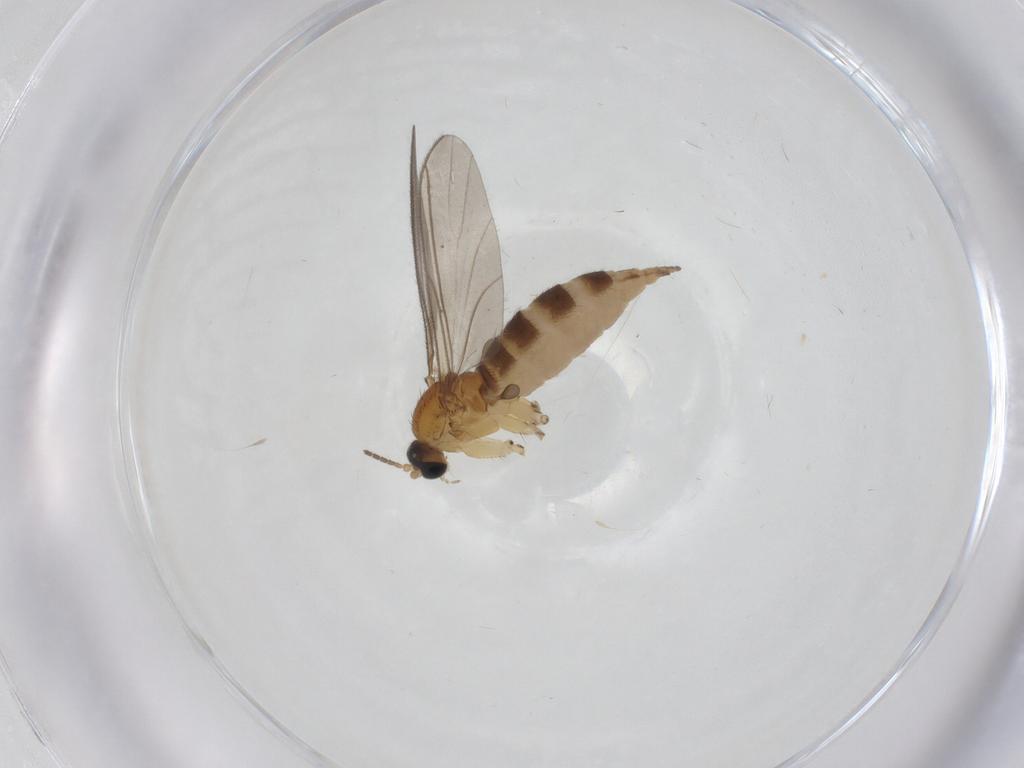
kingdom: Animalia
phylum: Arthropoda
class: Insecta
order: Diptera
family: Sciaridae
